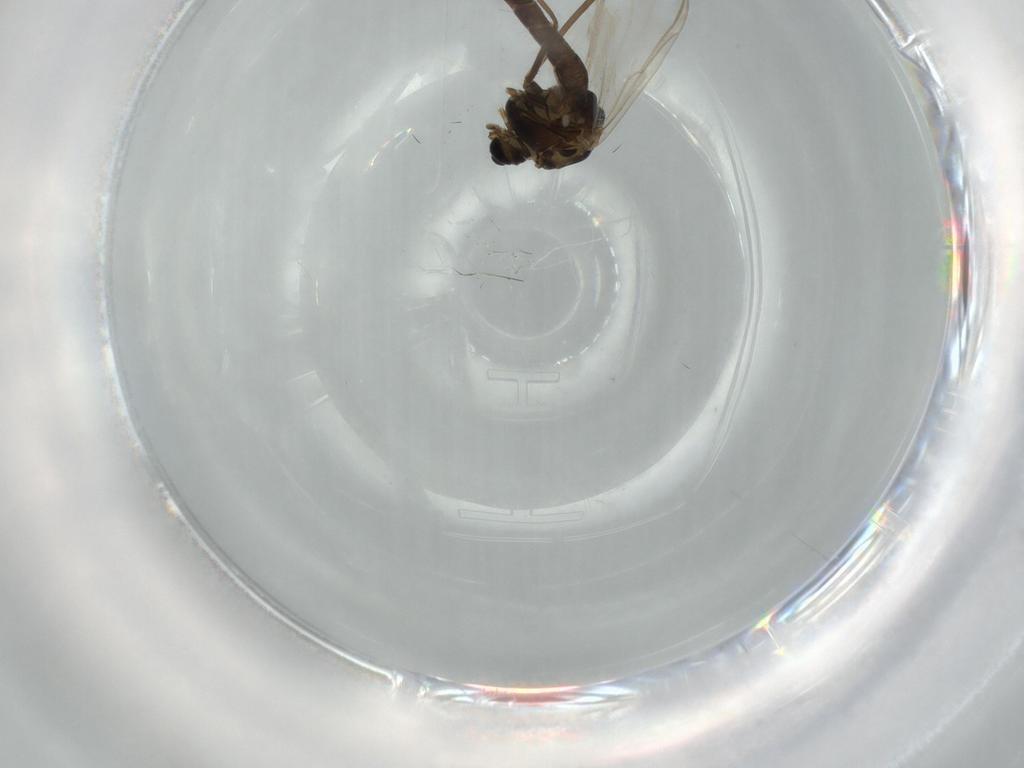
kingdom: Animalia
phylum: Arthropoda
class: Insecta
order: Diptera
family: Chironomidae
